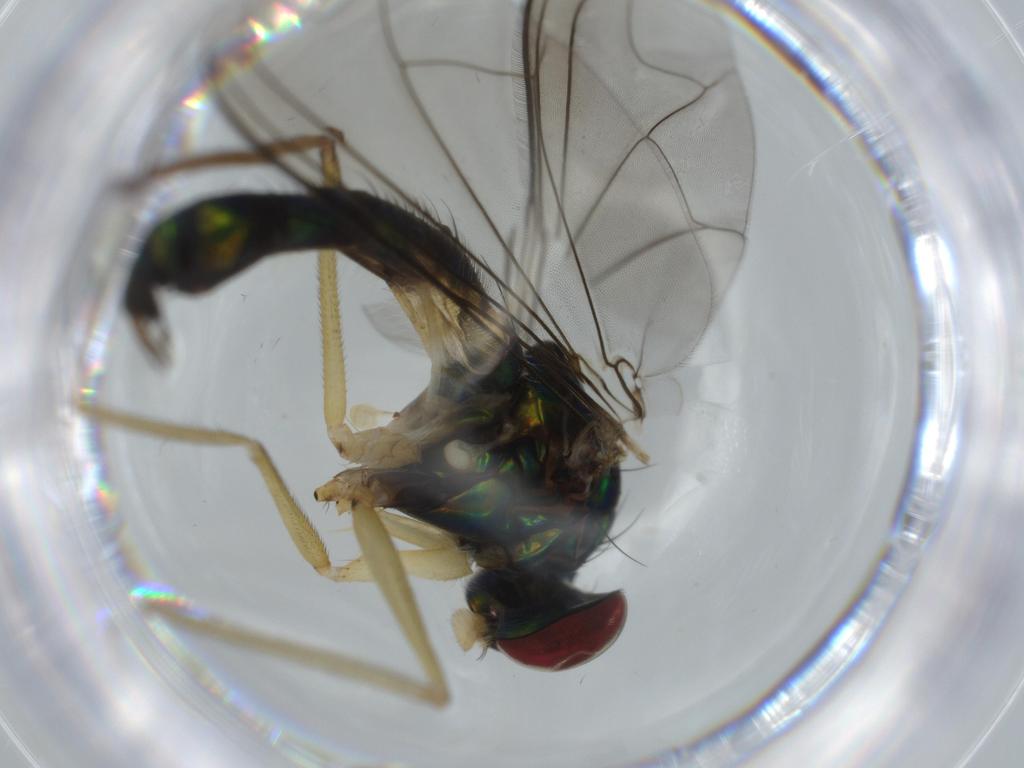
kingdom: Animalia
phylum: Arthropoda
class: Insecta
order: Diptera
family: Dolichopodidae
